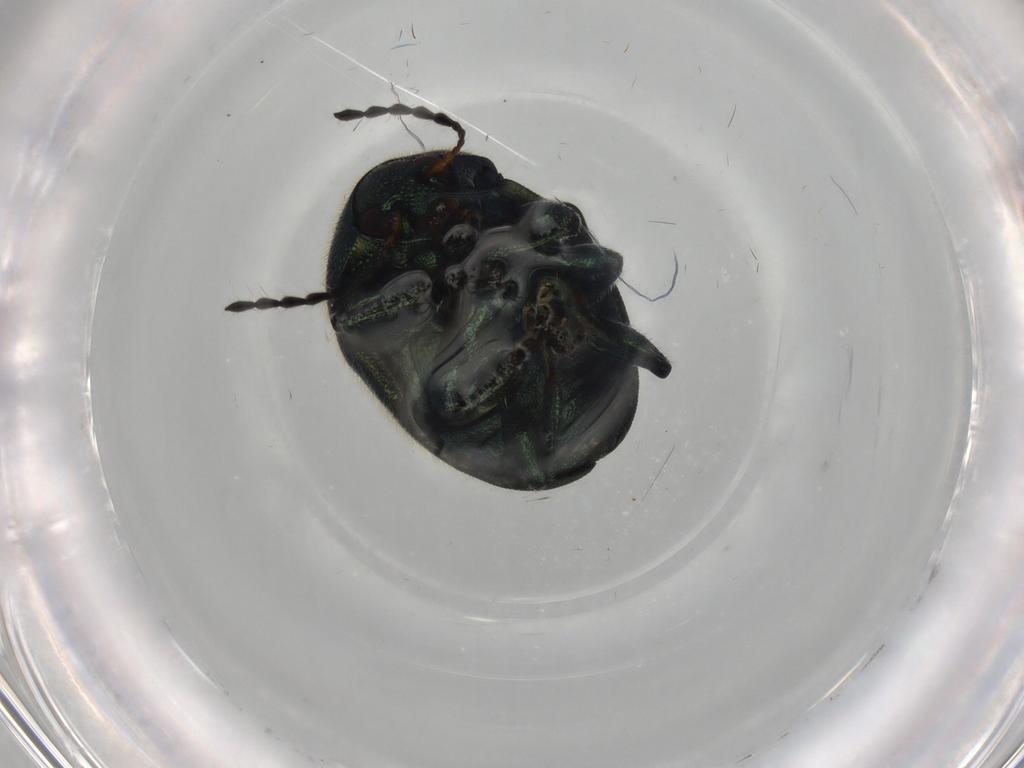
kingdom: Animalia
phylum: Arthropoda
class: Insecta
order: Coleoptera
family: Chrysomelidae
